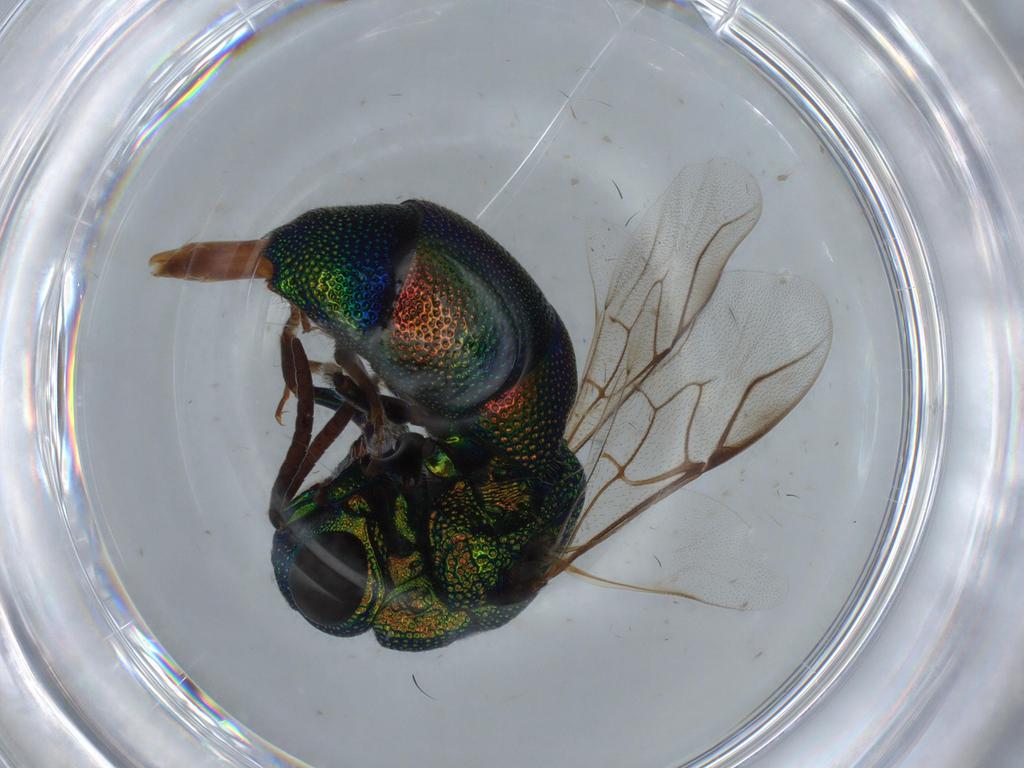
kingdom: Animalia
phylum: Arthropoda
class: Insecta
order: Hymenoptera
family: Chrysididae
